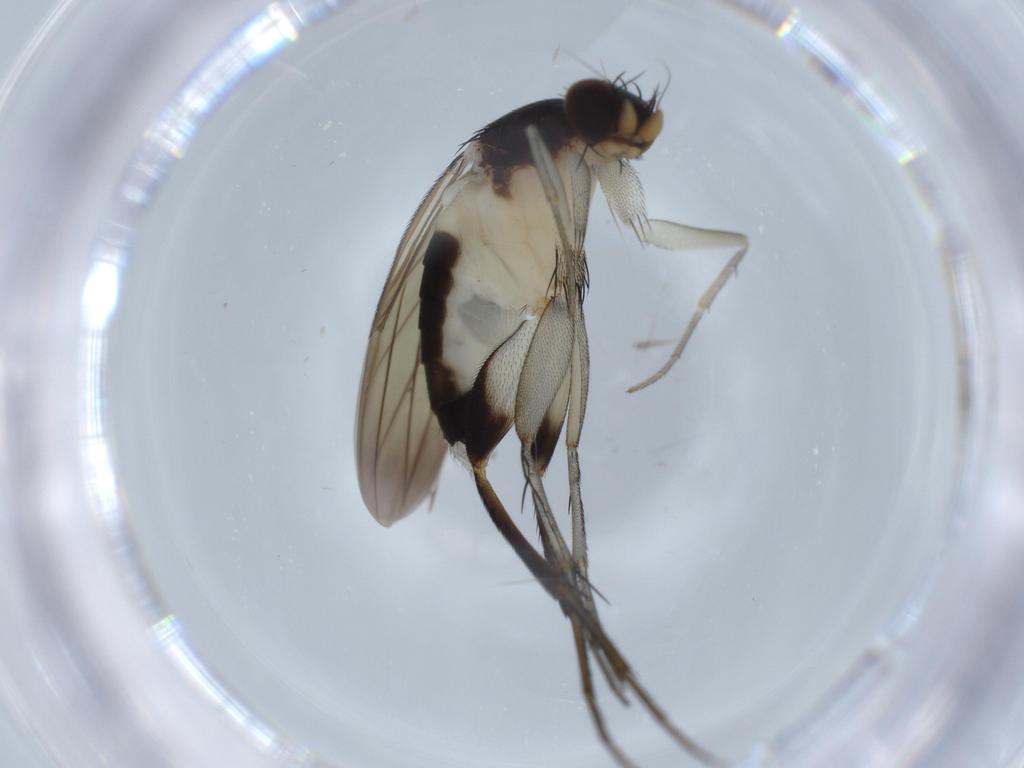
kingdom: Animalia
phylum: Arthropoda
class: Insecta
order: Diptera
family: Phoridae
